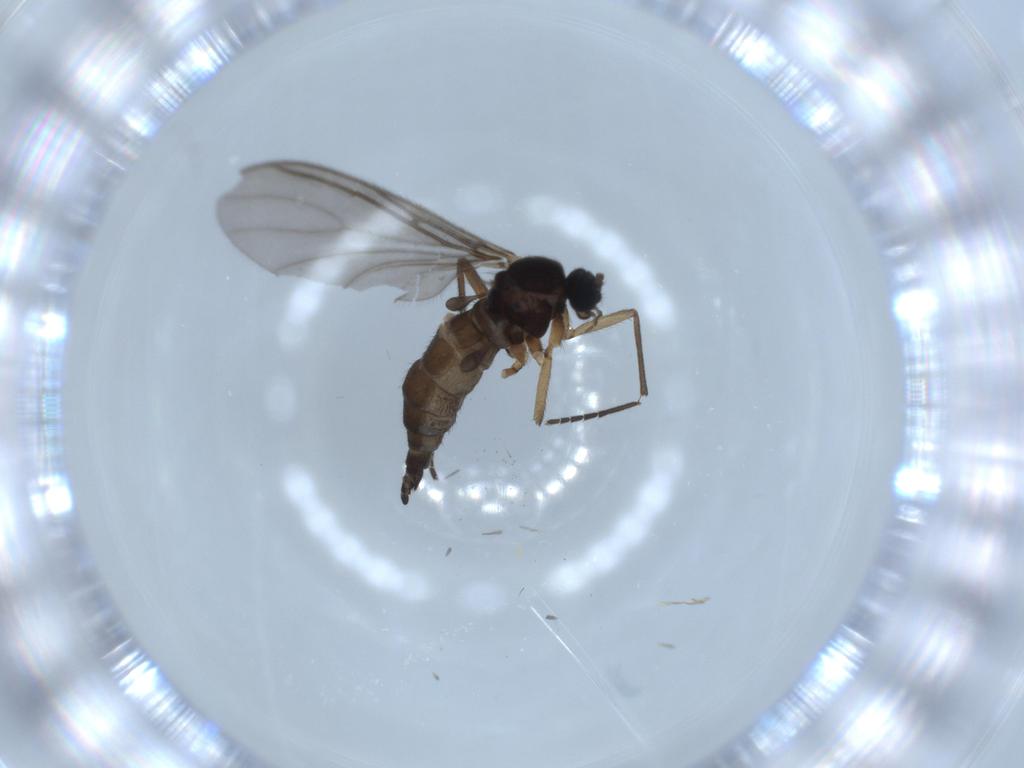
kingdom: Animalia
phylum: Arthropoda
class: Insecta
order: Diptera
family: Sciaridae
